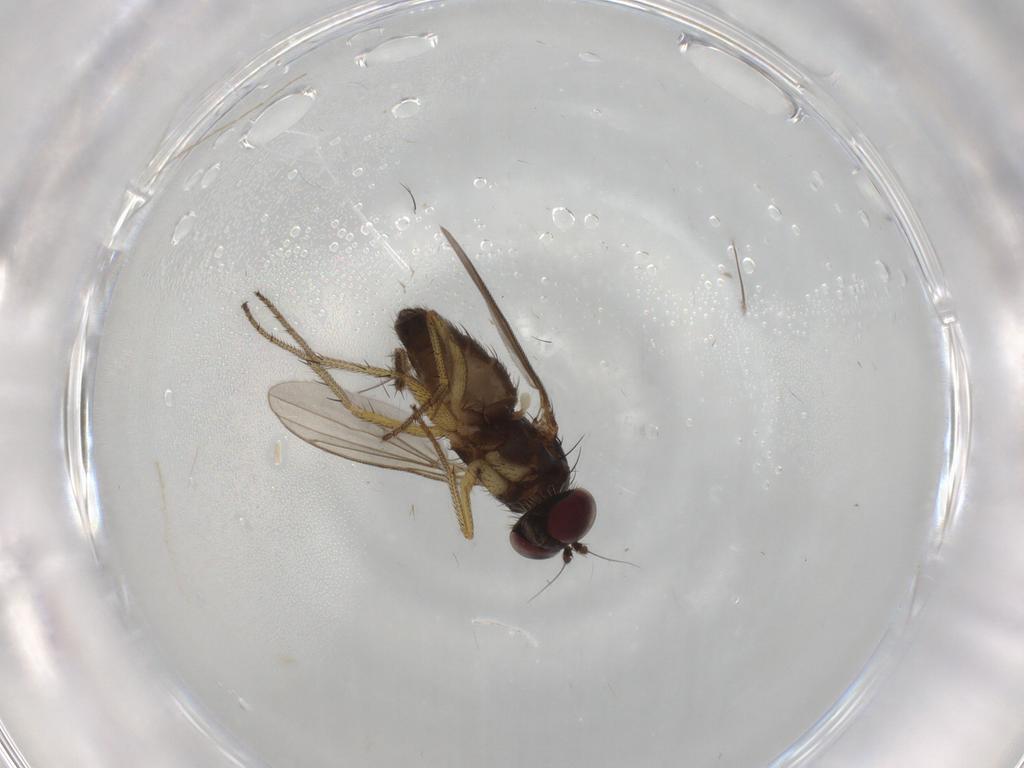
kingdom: Animalia
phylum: Arthropoda
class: Insecta
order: Diptera
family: Chironomidae
